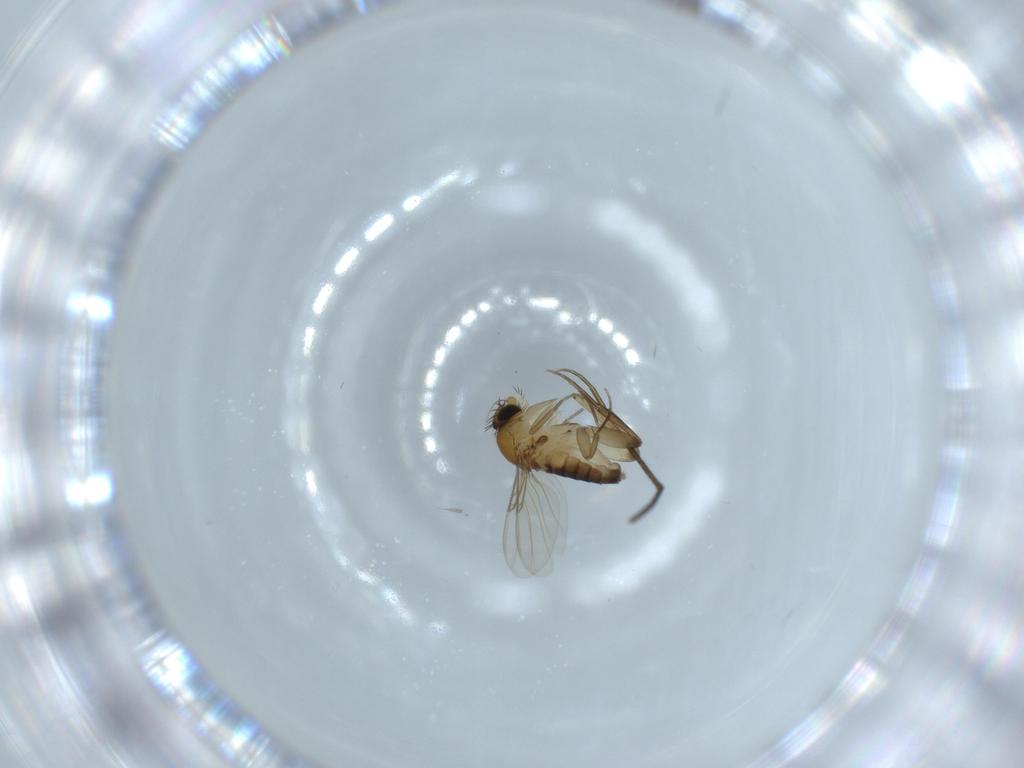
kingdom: Animalia
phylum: Arthropoda
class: Insecta
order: Diptera
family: Phoridae
